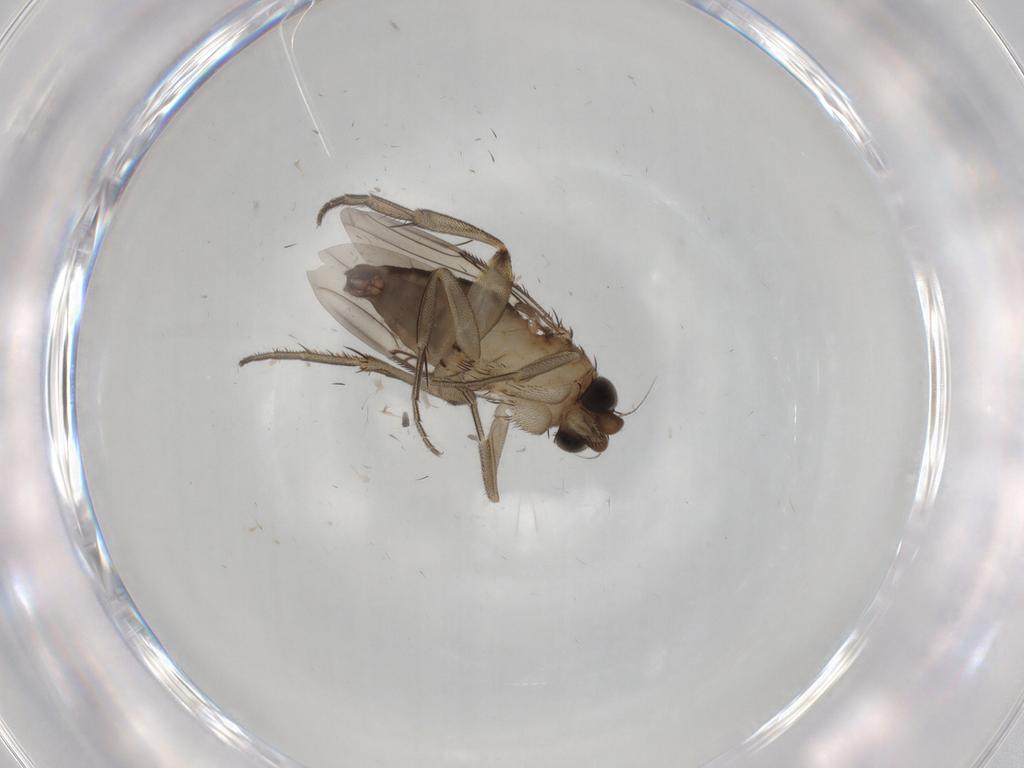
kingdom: Animalia
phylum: Arthropoda
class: Insecta
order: Diptera
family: Phoridae
